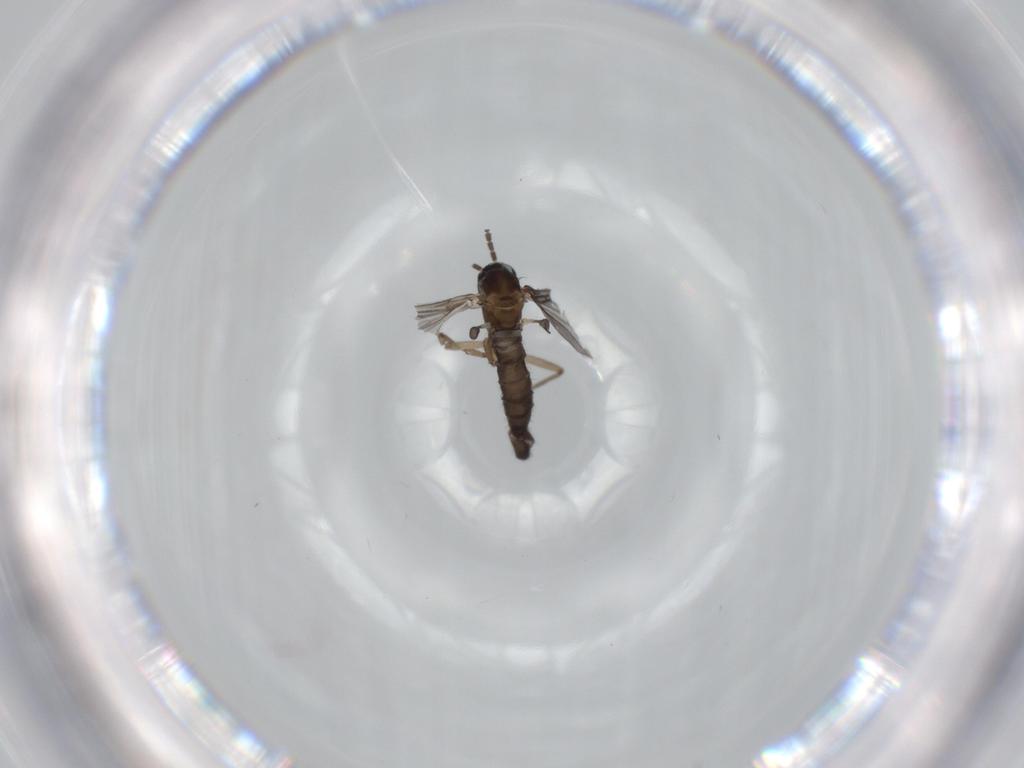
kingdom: Animalia
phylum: Arthropoda
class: Insecta
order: Diptera
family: Sciaridae
